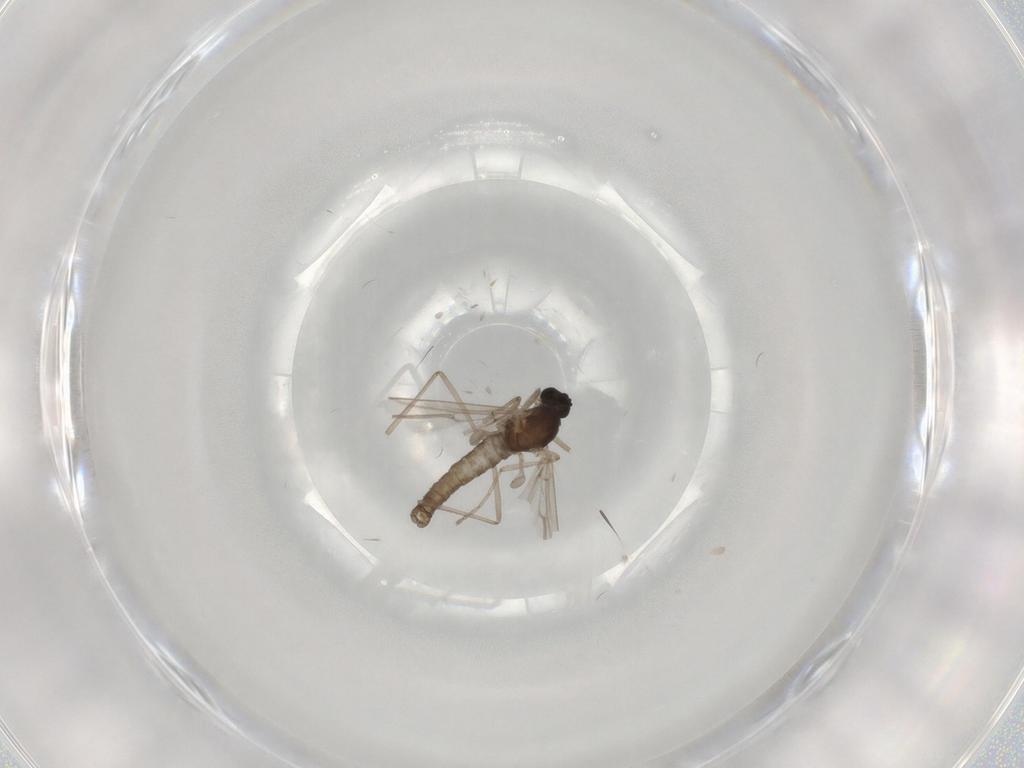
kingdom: Animalia
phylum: Arthropoda
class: Insecta
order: Diptera
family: Cecidomyiidae
